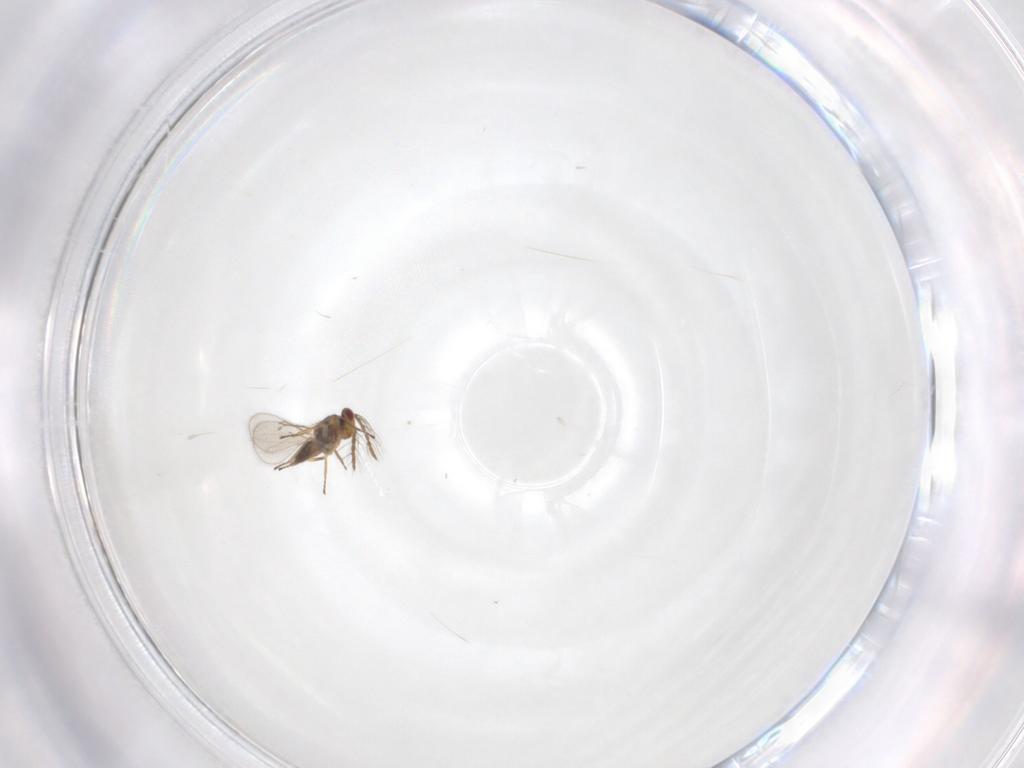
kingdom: Animalia
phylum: Arthropoda
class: Insecta
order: Hymenoptera
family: Eulophidae
